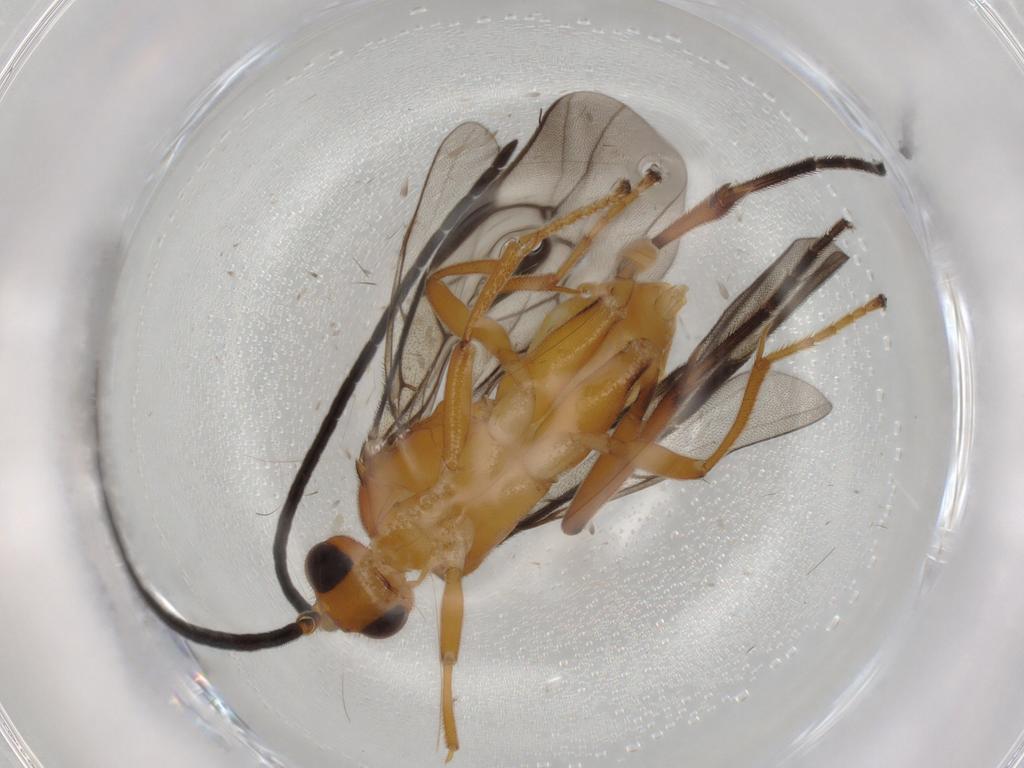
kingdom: Animalia
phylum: Arthropoda
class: Insecta
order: Hymenoptera
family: Braconidae
